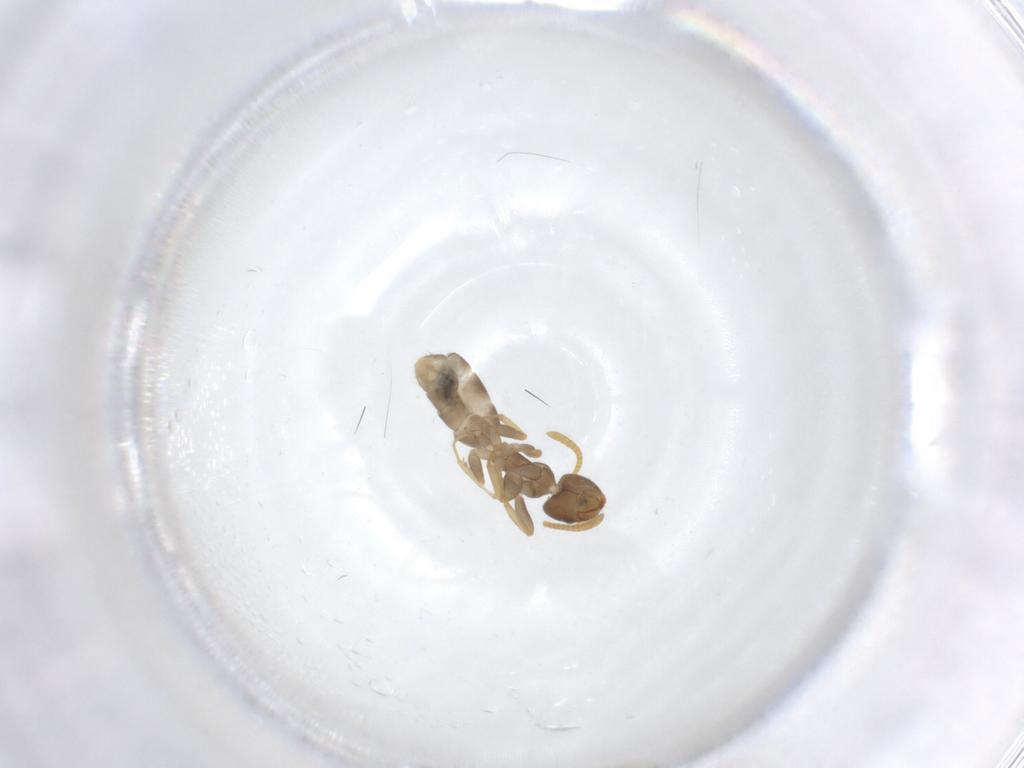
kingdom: Animalia
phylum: Arthropoda
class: Insecta
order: Hymenoptera
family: Formicidae
